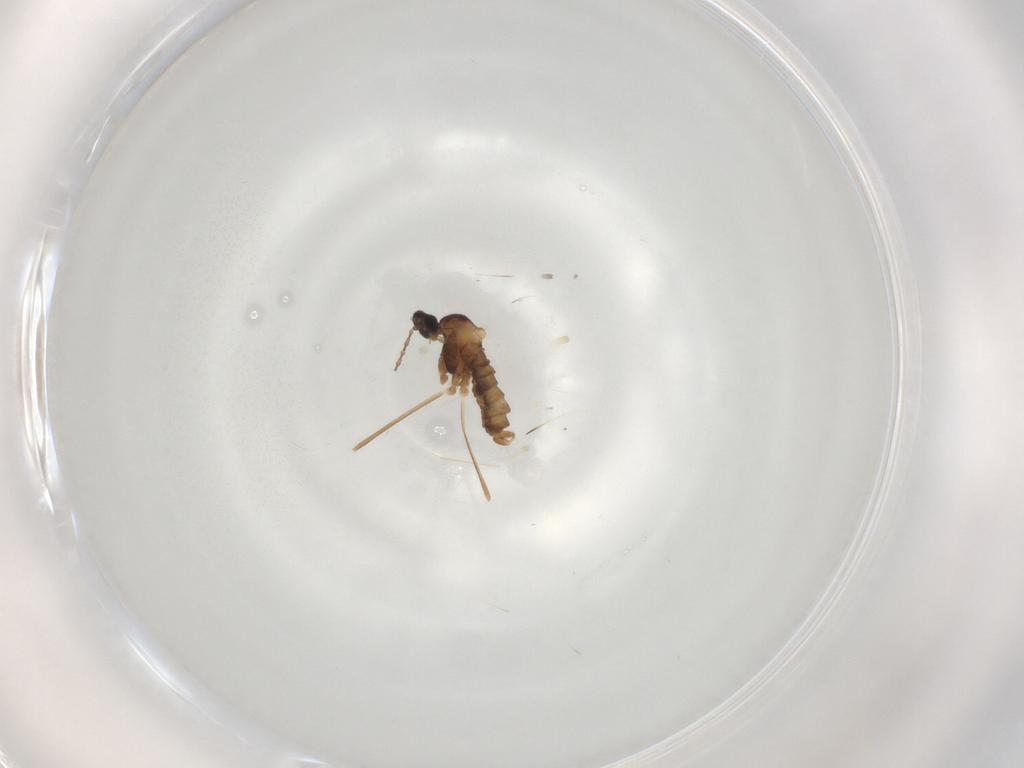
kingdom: Animalia
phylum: Arthropoda
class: Insecta
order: Diptera
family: Cecidomyiidae
